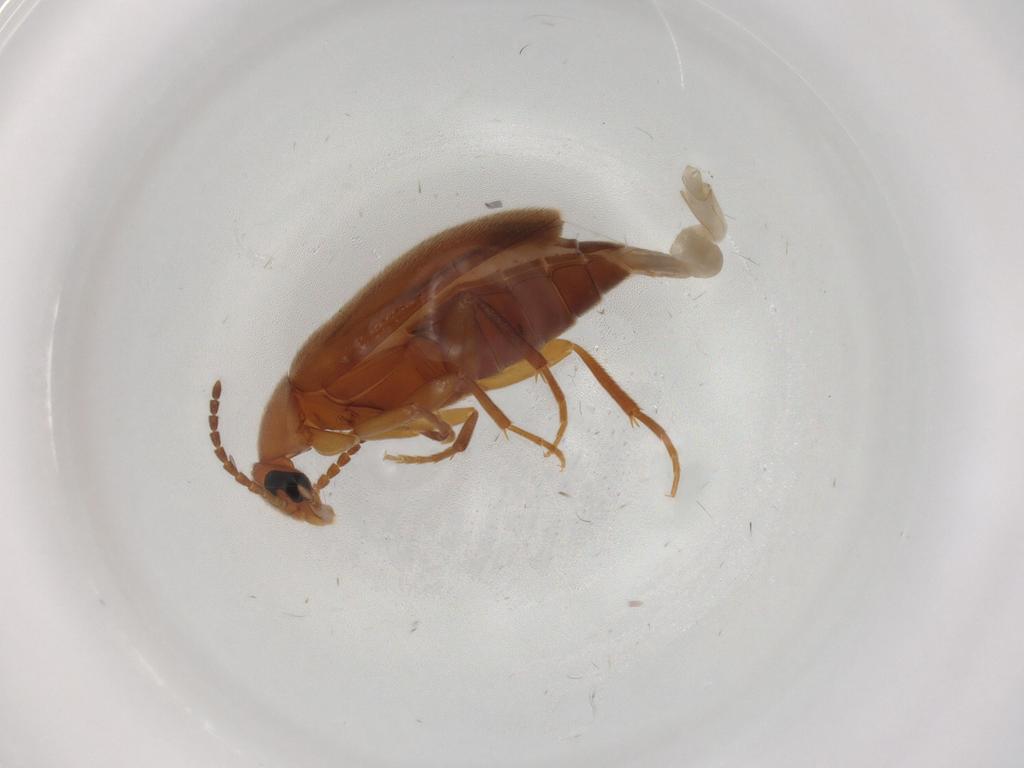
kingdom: Animalia
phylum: Arthropoda
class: Insecta
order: Coleoptera
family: Scraptiidae
